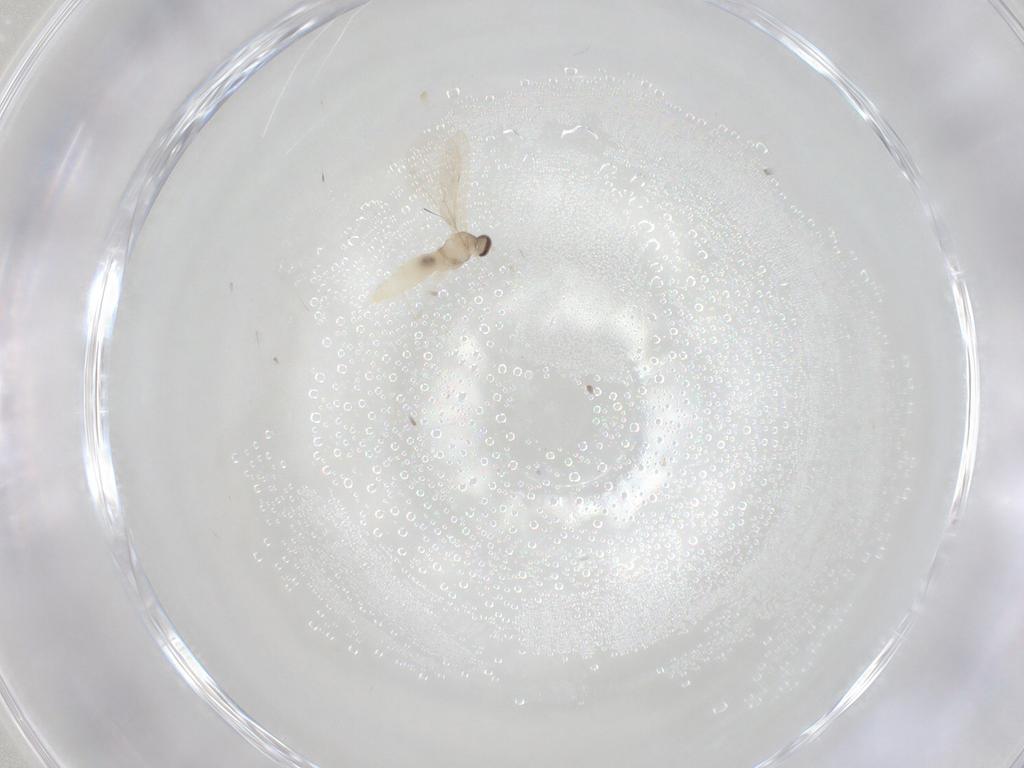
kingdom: Animalia
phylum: Arthropoda
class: Insecta
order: Diptera
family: Cecidomyiidae
